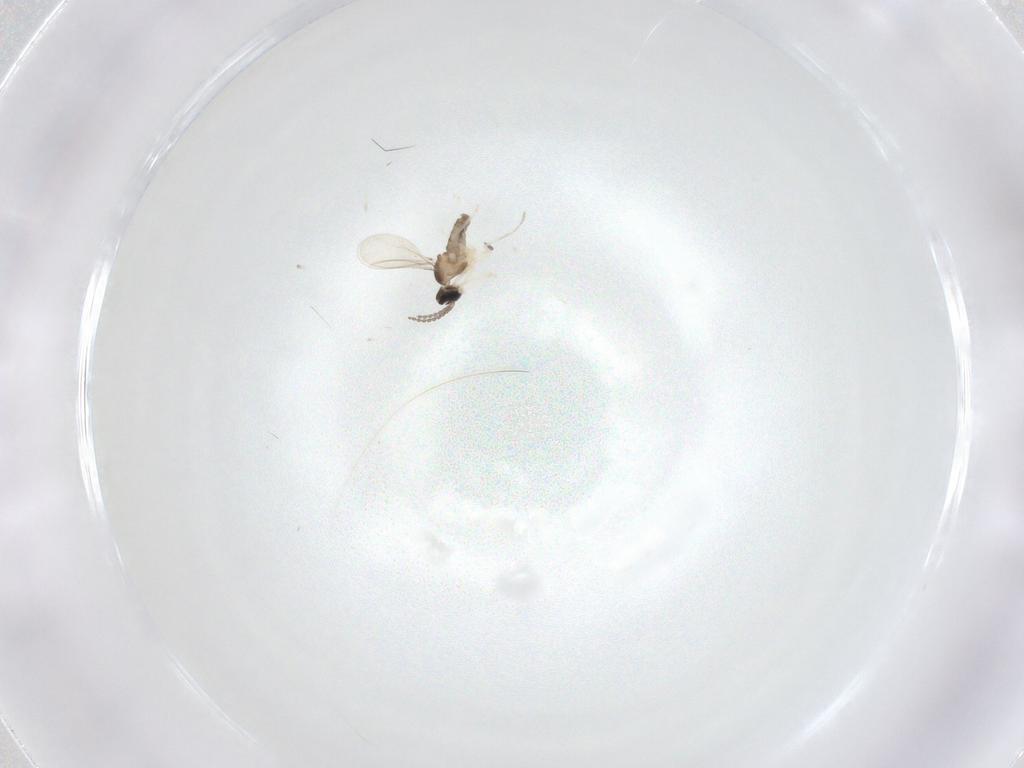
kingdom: Animalia
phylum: Arthropoda
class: Insecta
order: Diptera
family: Cecidomyiidae
